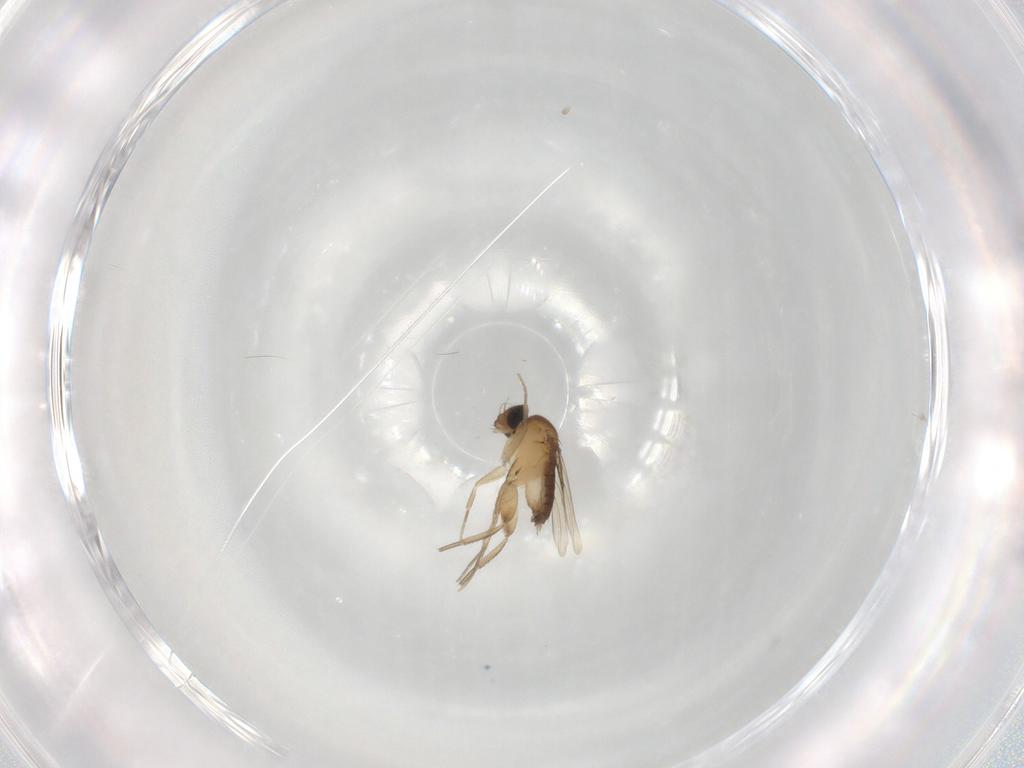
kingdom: Animalia
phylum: Arthropoda
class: Insecta
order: Diptera
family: Phoridae
